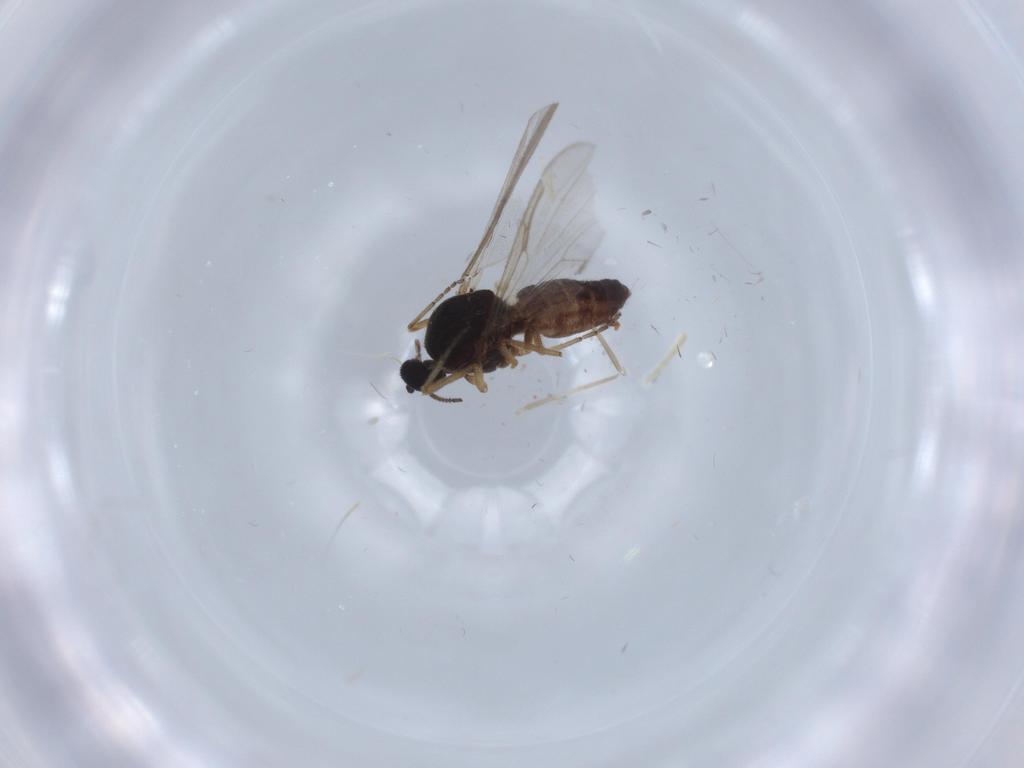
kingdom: Animalia
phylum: Arthropoda
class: Insecta
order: Diptera
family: Ceratopogonidae
